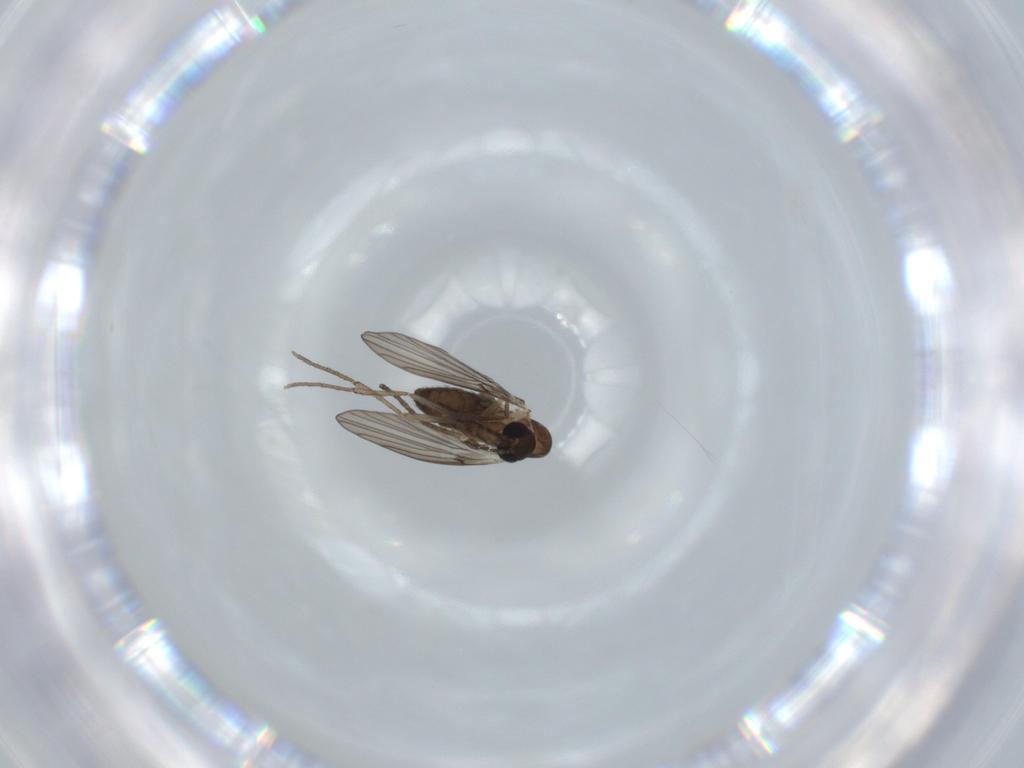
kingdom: Animalia
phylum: Arthropoda
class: Insecta
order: Diptera
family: Psychodidae
